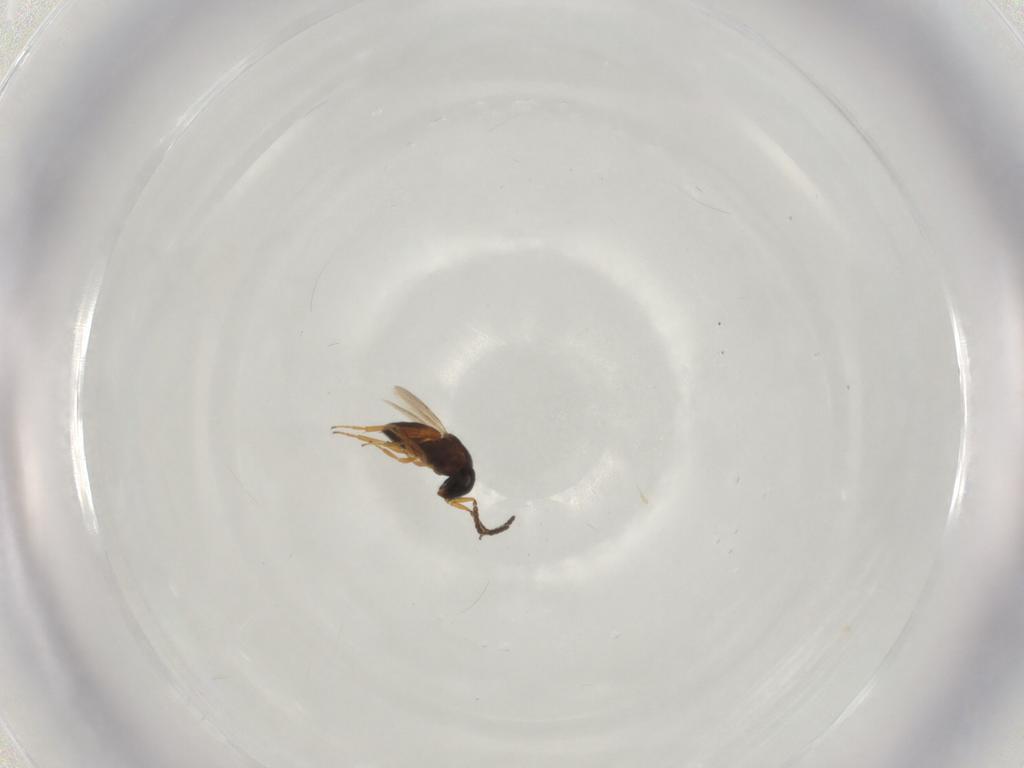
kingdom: Animalia
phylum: Arthropoda
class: Insecta
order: Hymenoptera
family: Scelionidae
